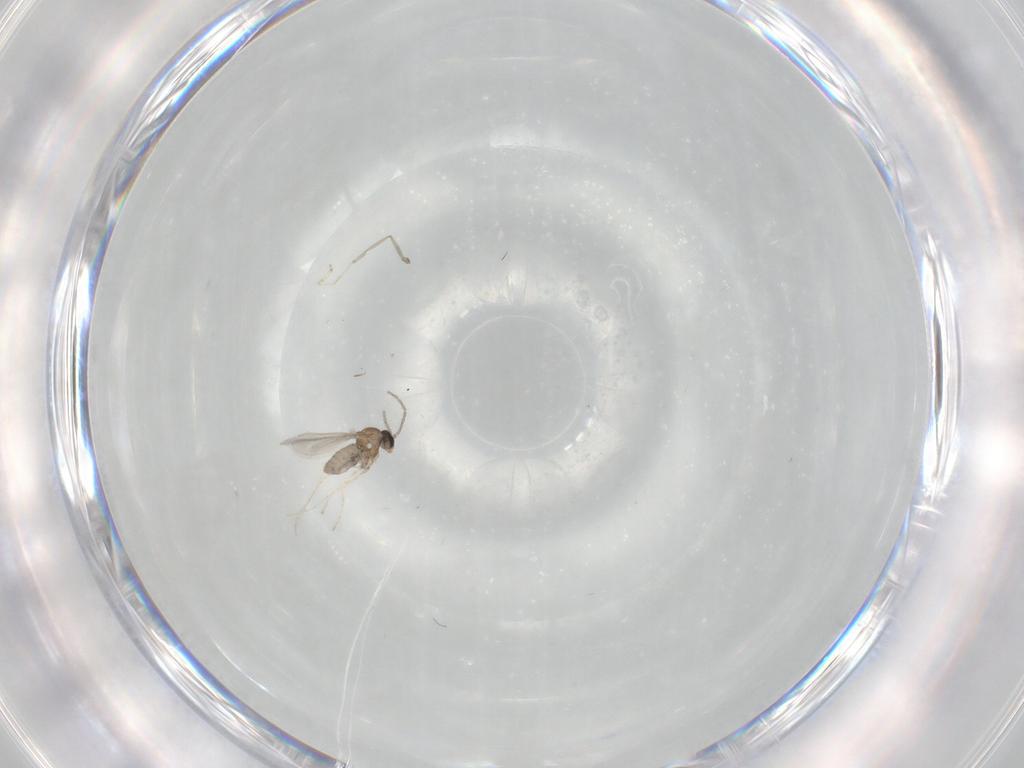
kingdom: Animalia
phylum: Arthropoda
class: Insecta
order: Diptera
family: Cecidomyiidae
